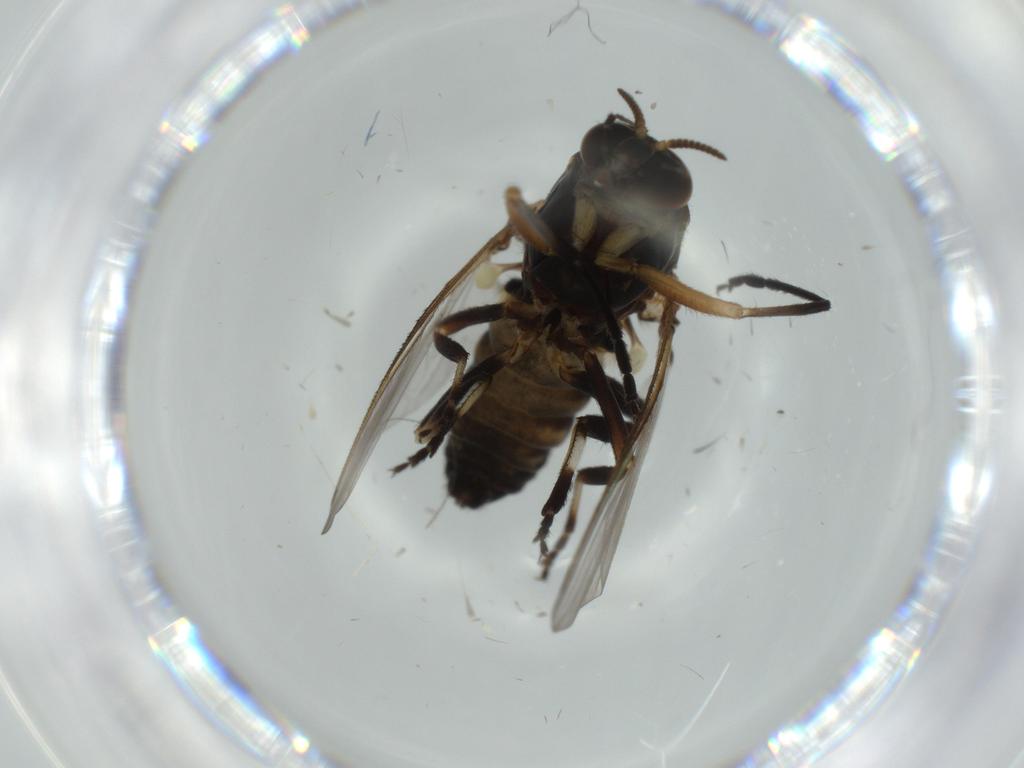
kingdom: Animalia
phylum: Arthropoda
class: Insecta
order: Diptera
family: Phoridae
